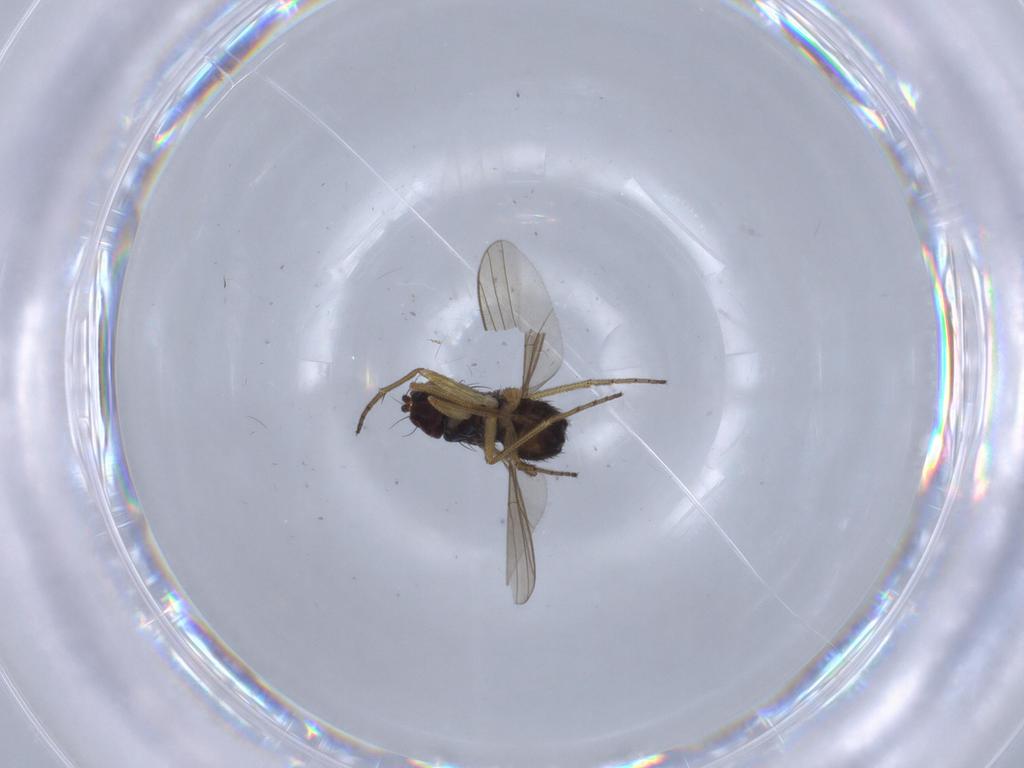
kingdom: Animalia
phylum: Arthropoda
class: Insecta
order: Diptera
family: Dolichopodidae
